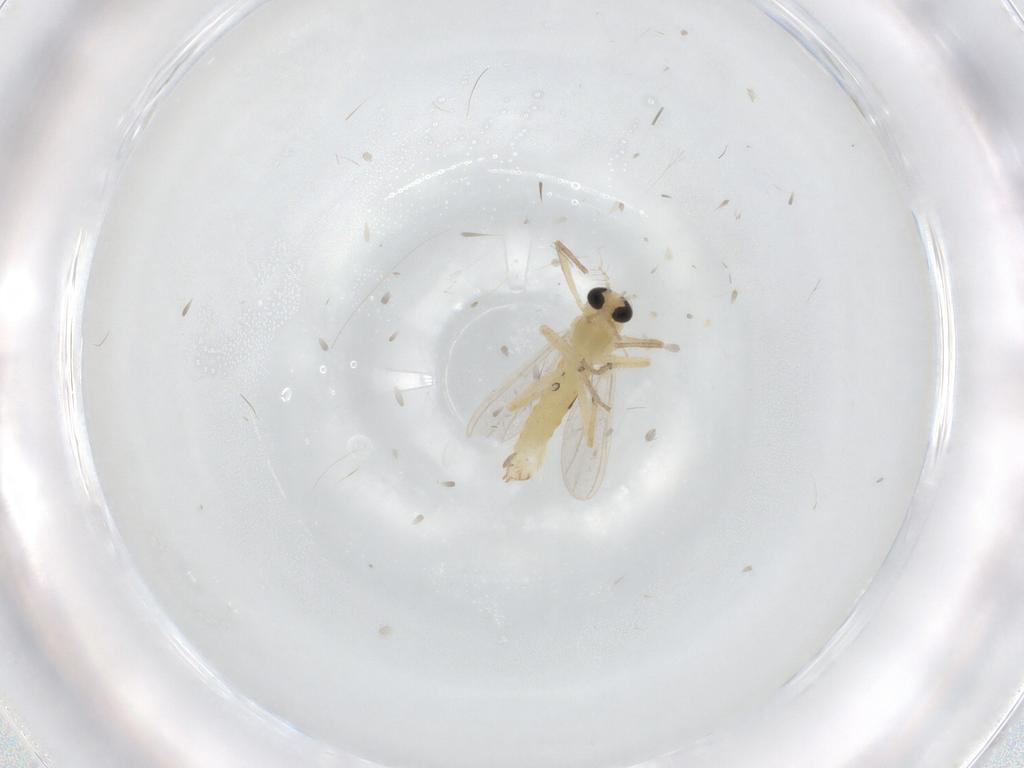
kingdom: Animalia
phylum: Arthropoda
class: Insecta
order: Diptera
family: Chironomidae
